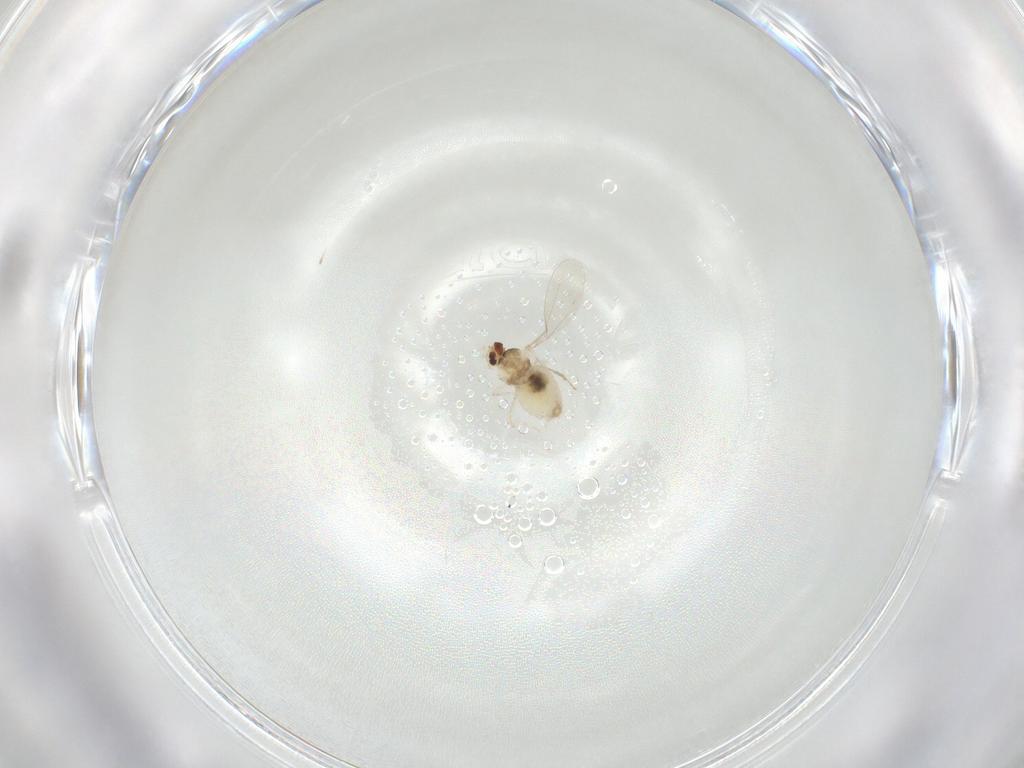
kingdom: Animalia
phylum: Arthropoda
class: Insecta
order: Diptera
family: Cecidomyiidae
